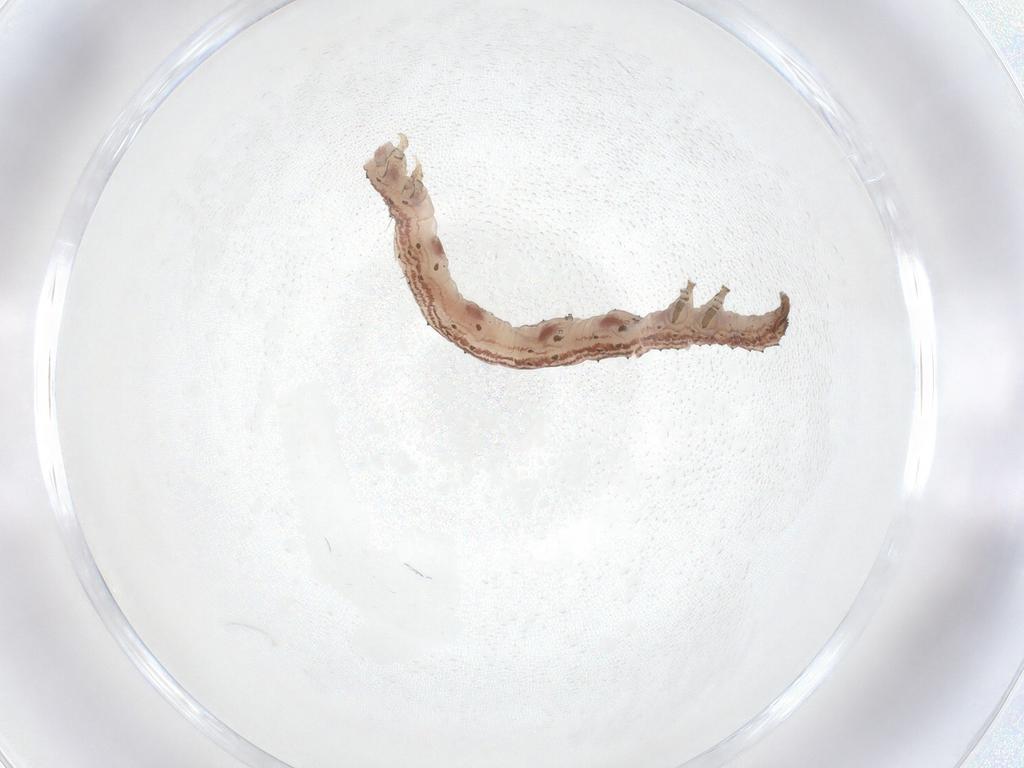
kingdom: Animalia
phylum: Arthropoda
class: Insecta
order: Lepidoptera
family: Erebidae
